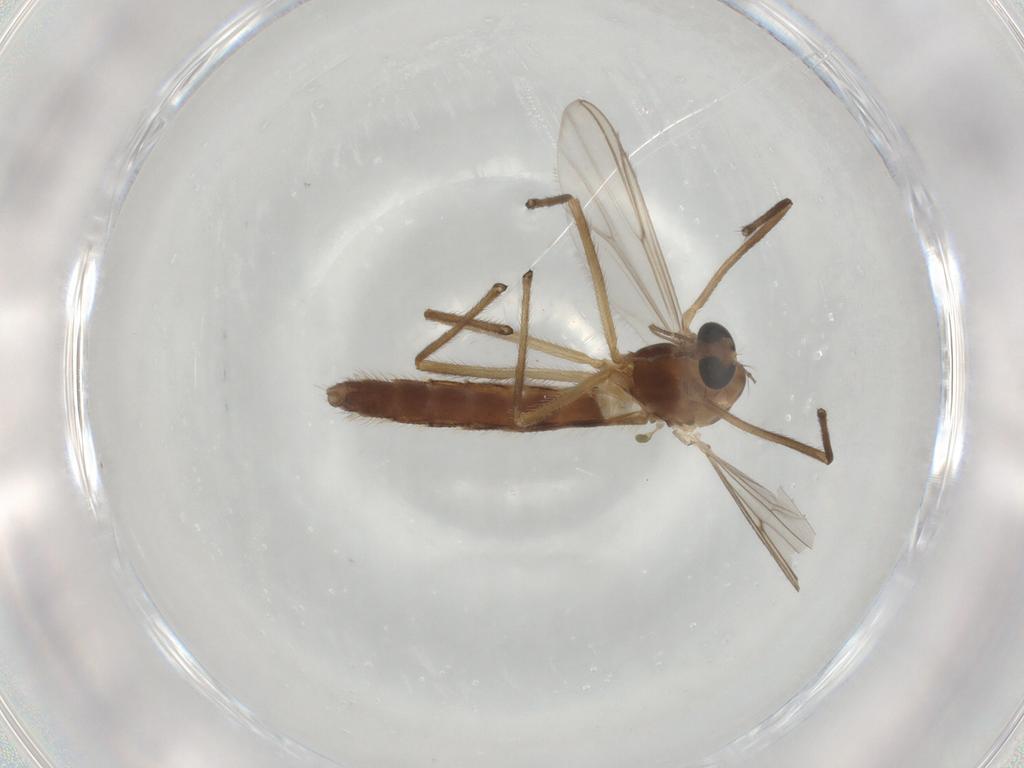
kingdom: Animalia
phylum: Arthropoda
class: Insecta
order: Diptera
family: Chironomidae
